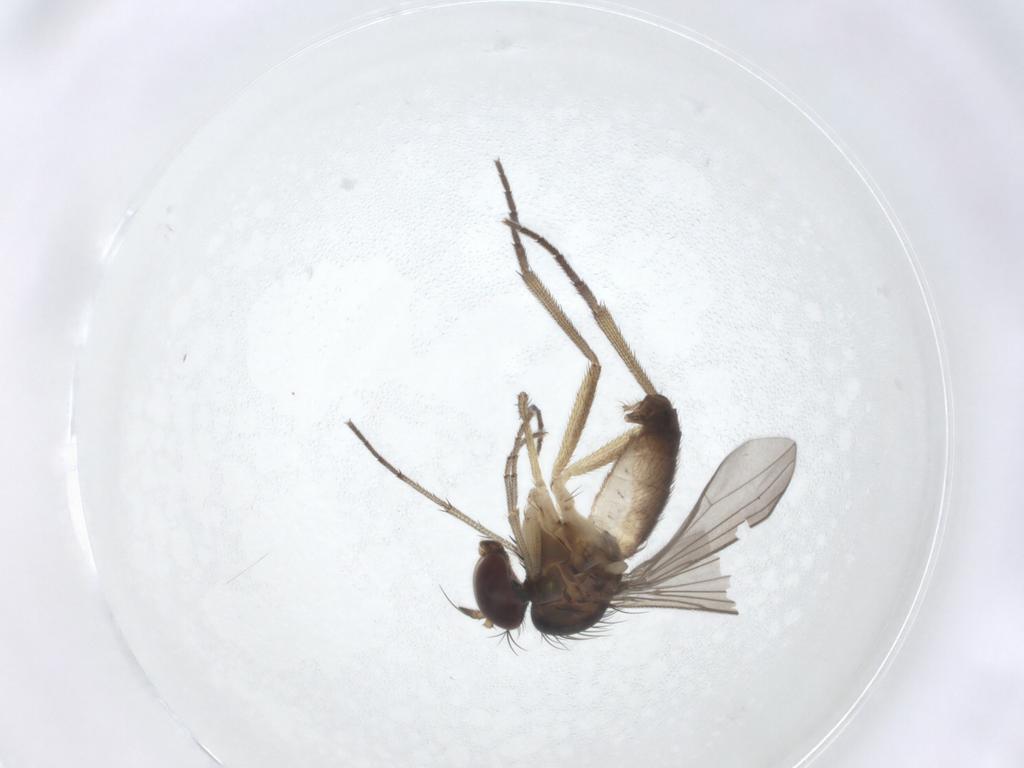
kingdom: Animalia
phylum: Arthropoda
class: Insecta
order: Diptera
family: Dolichopodidae
